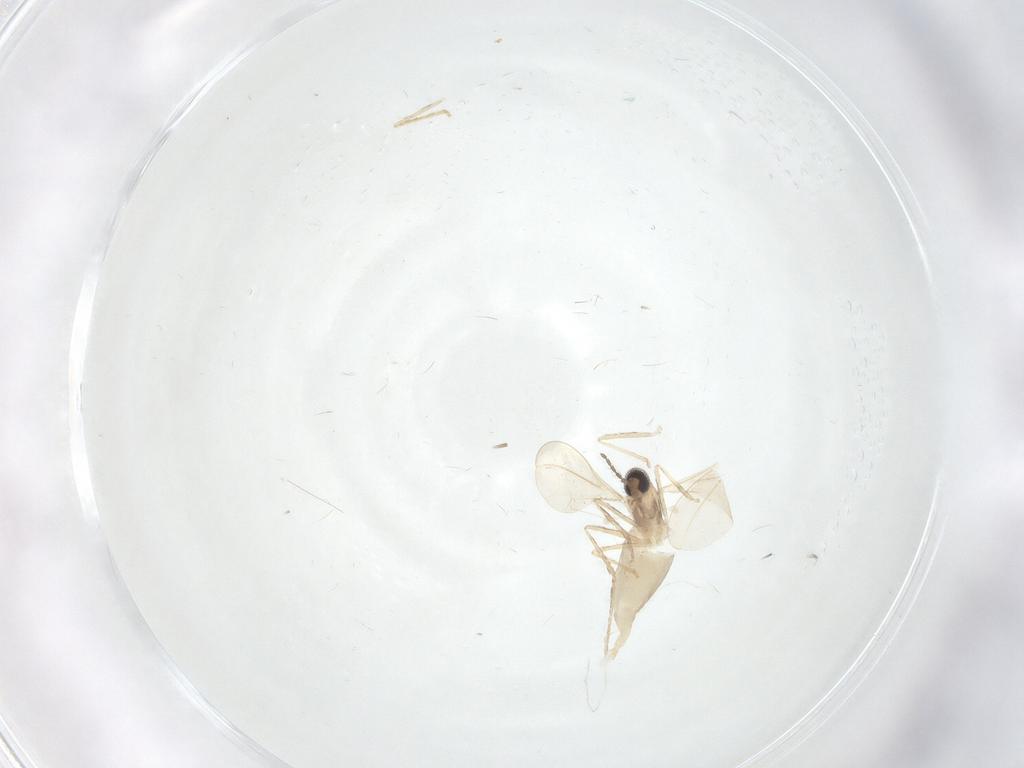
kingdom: Animalia
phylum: Arthropoda
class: Insecta
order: Diptera
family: Cecidomyiidae
